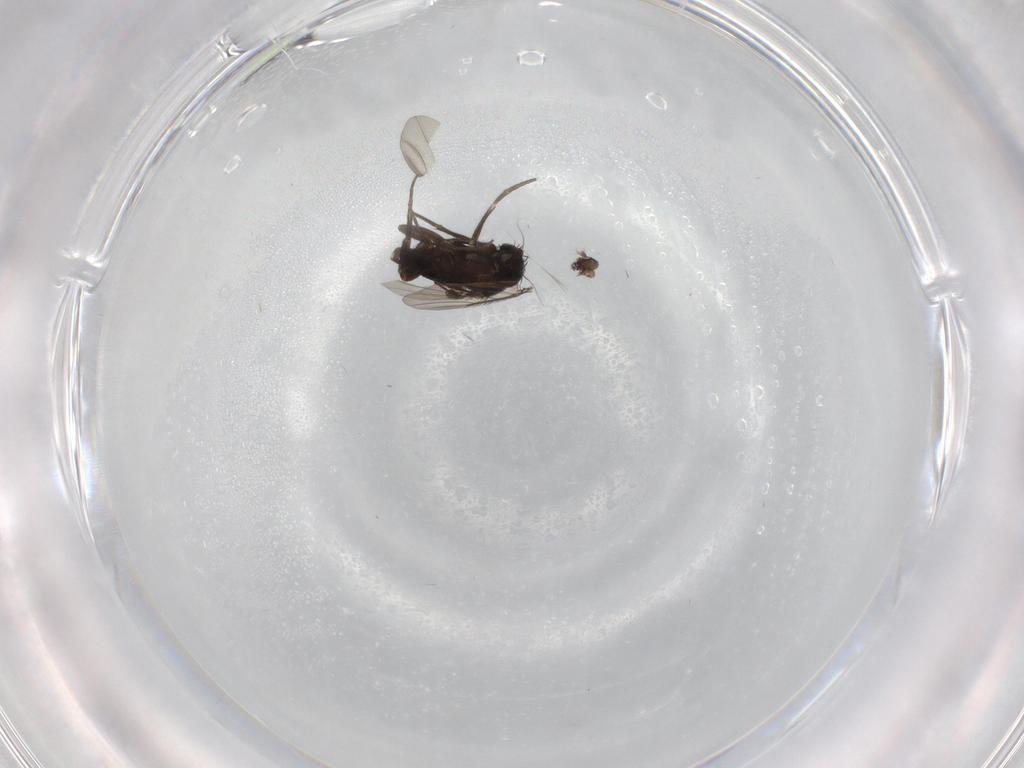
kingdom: Animalia
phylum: Arthropoda
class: Insecta
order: Diptera
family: Phoridae
